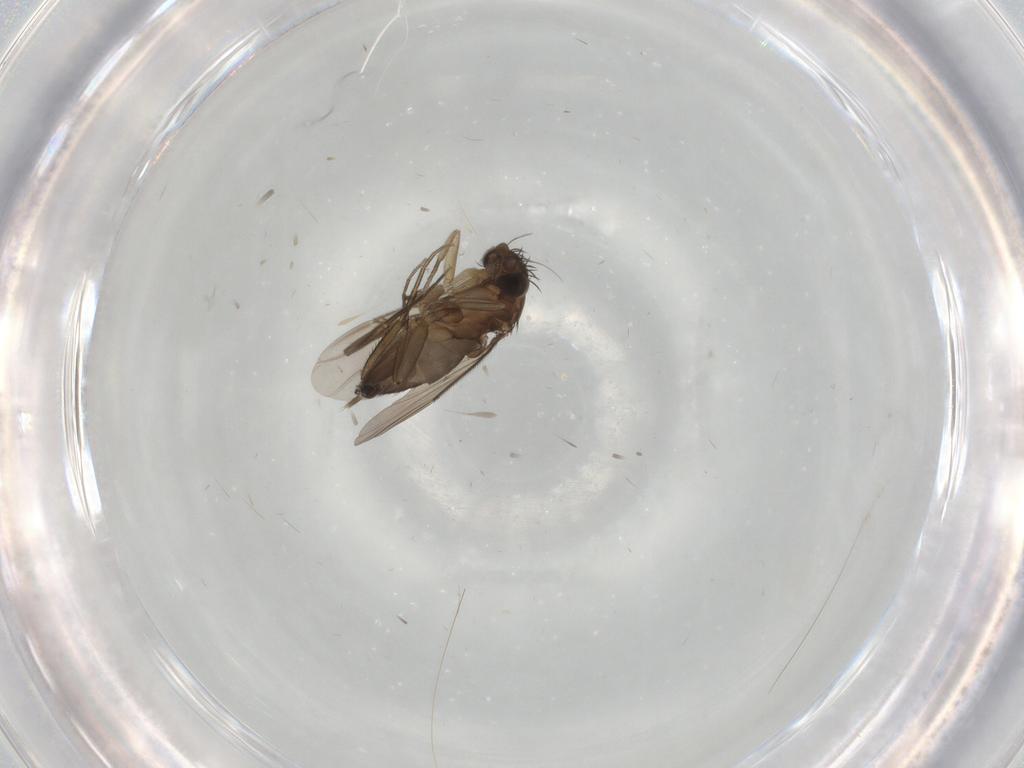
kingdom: Animalia
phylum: Arthropoda
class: Insecta
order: Diptera
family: Phoridae
